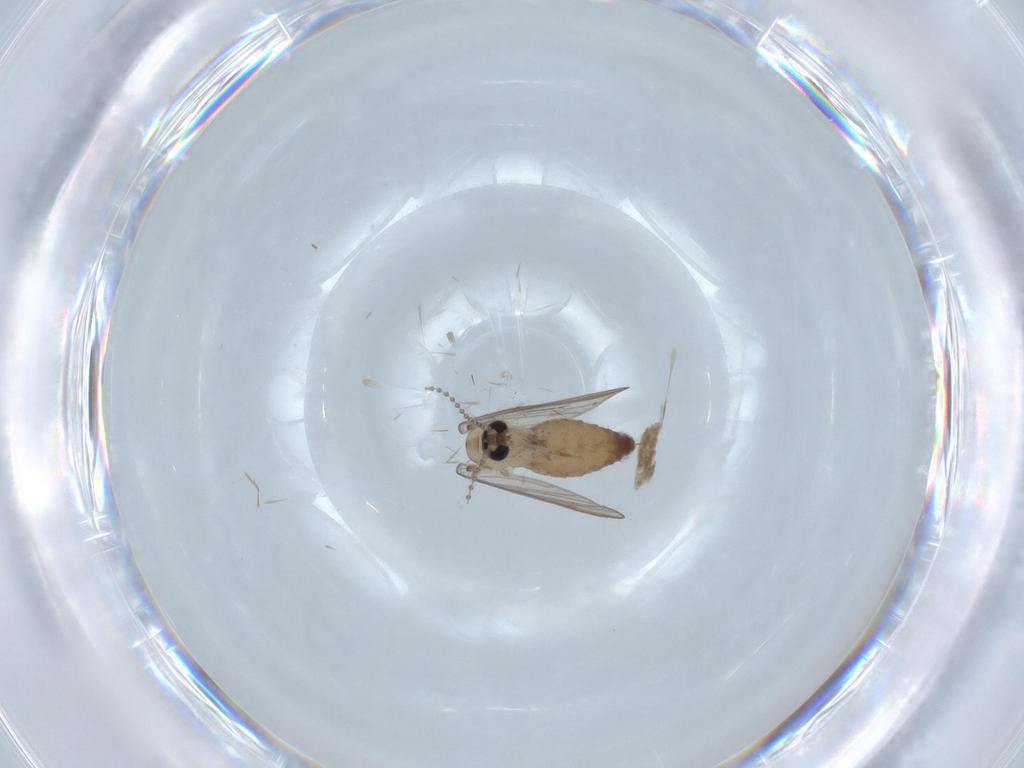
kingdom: Animalia
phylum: Arthropoda
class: Insecta
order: Diptera
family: Psychodidae
